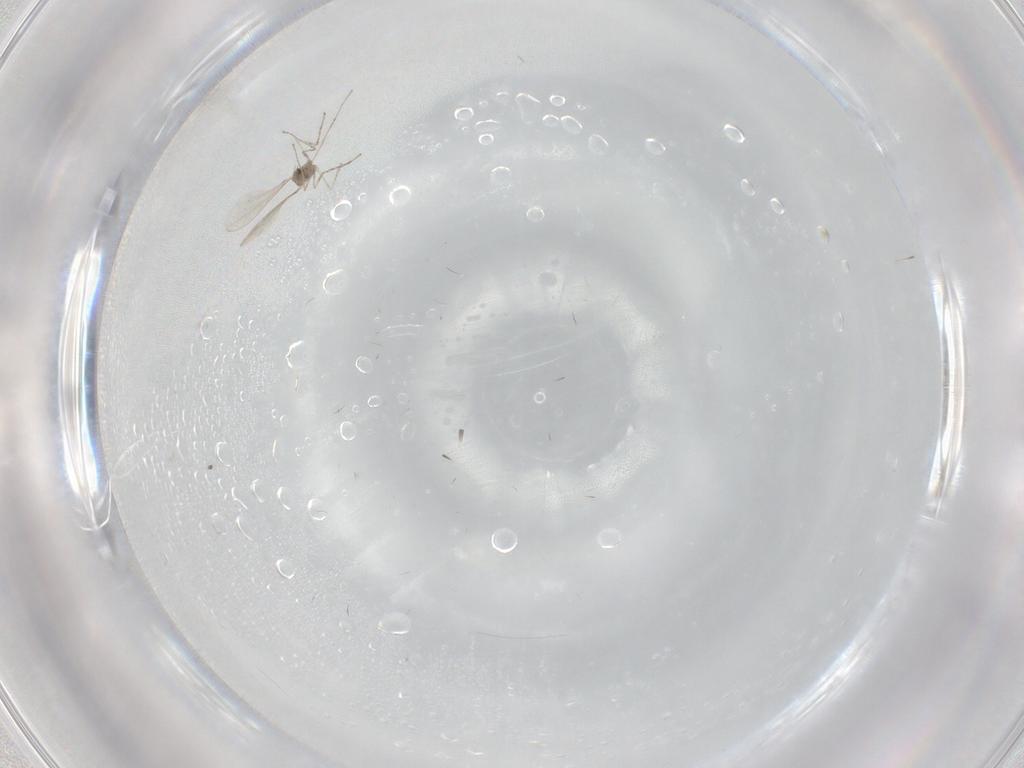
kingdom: Animalia
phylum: Arthropoda
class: Insecta
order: Diptera
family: Cecidomyiidae
